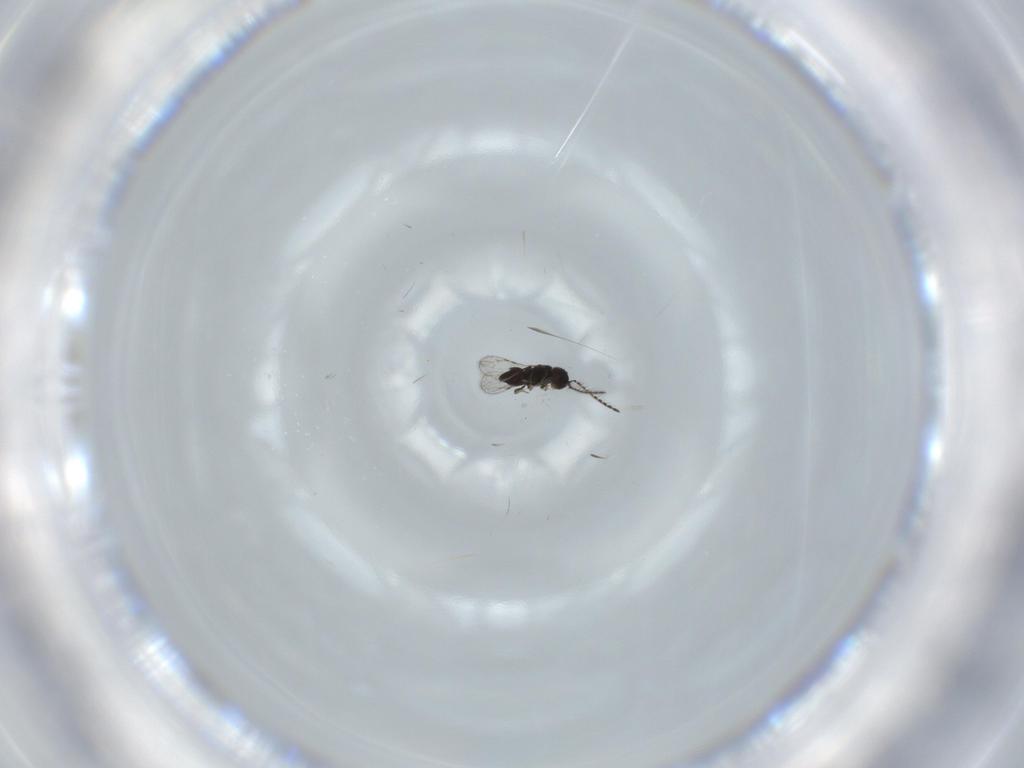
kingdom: Animalia
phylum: Arthropoda
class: Insecta
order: Hymenoptera
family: Ceraphronidae
